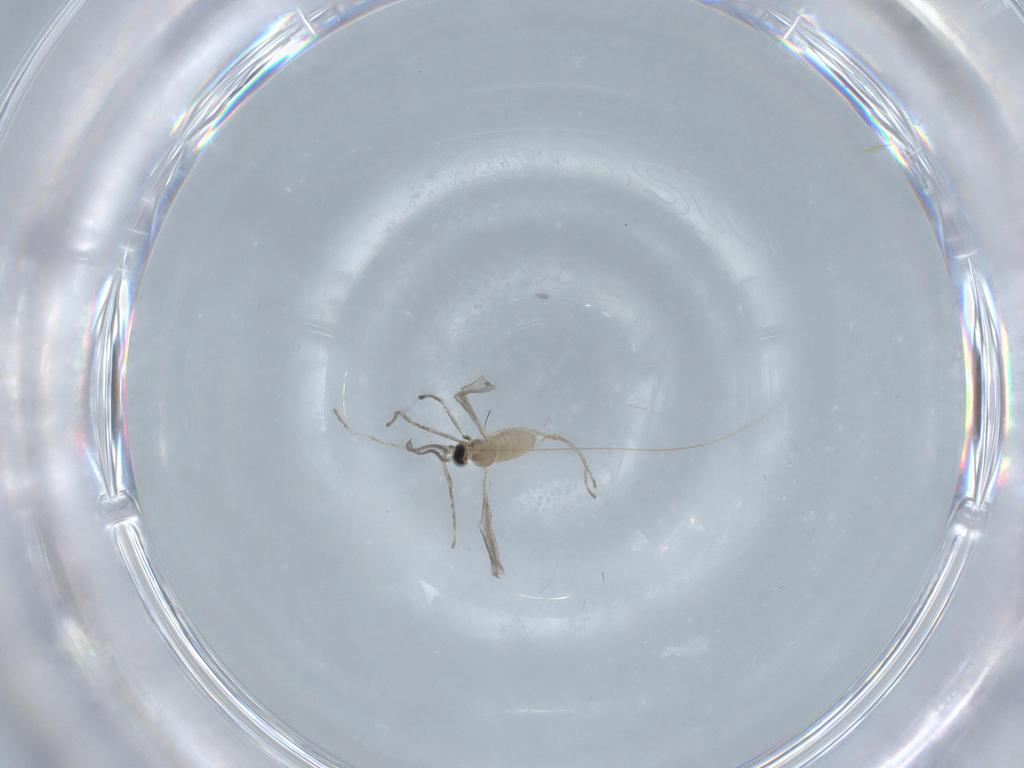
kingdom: Animalia
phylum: Arthropoda
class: Insecta
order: Diptera
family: Cecidomyiidae
